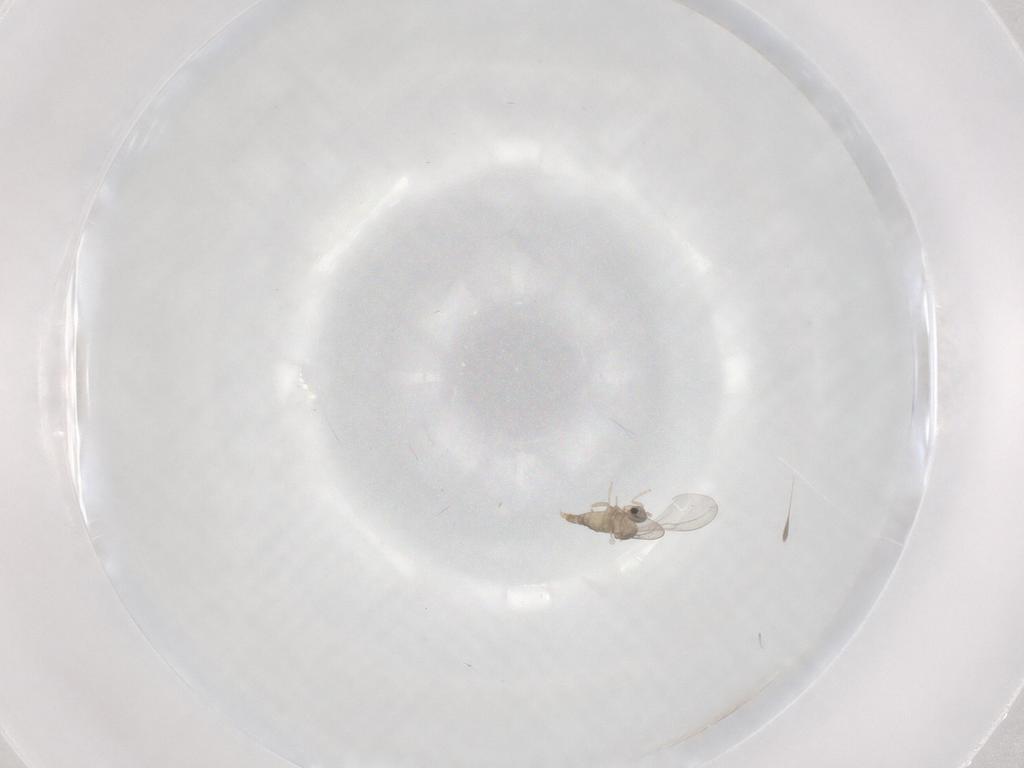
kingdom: Animalia
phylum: Arthropoda
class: Insecta
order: Diptera
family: Cecidomyiidae
